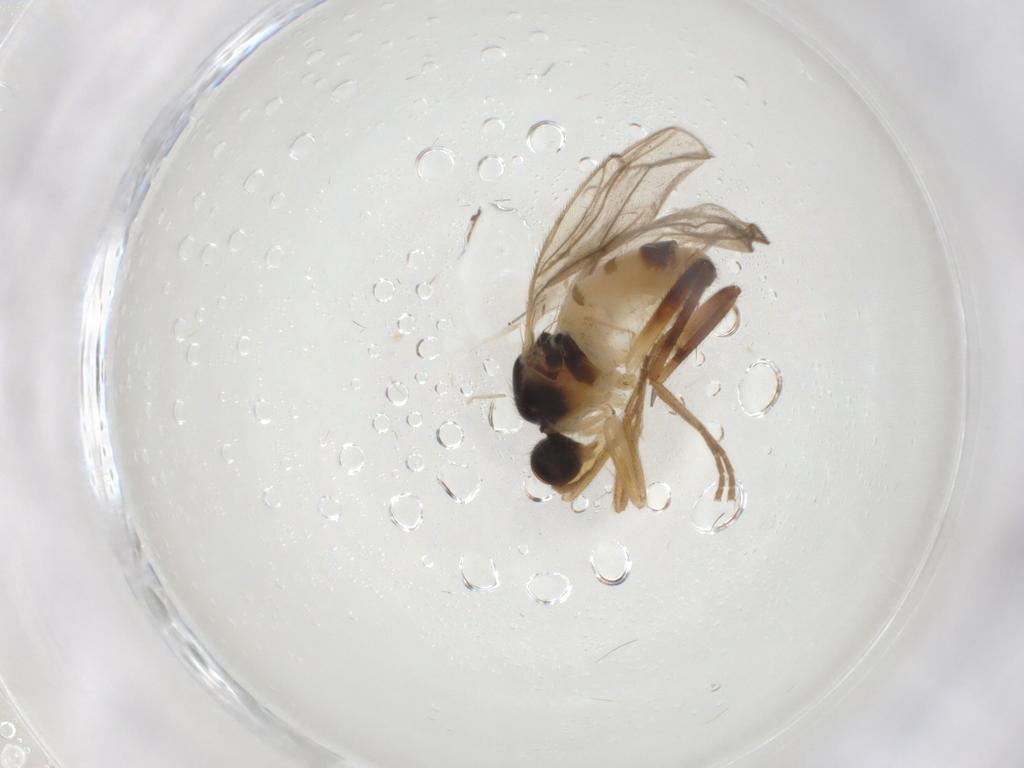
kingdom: Animalia
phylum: Arthropoda
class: Insecta
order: Diptera
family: Hybotidae
